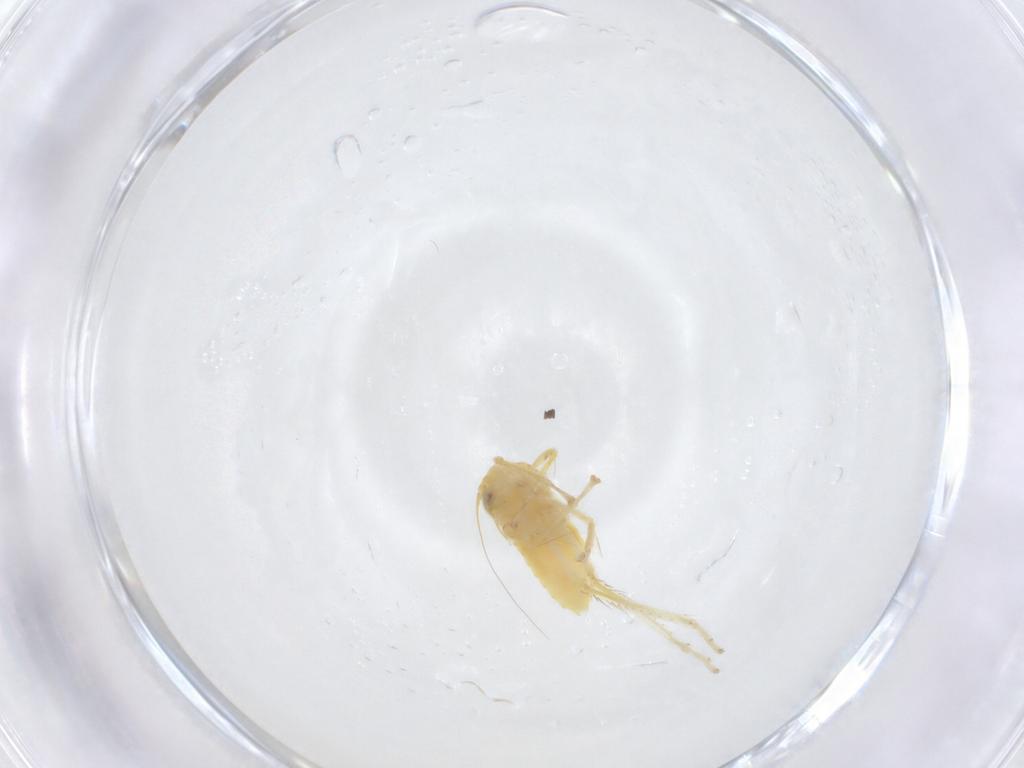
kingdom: Animalia
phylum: Arthropoda
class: Insecta
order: Hemiptera
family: Cicadellidae
